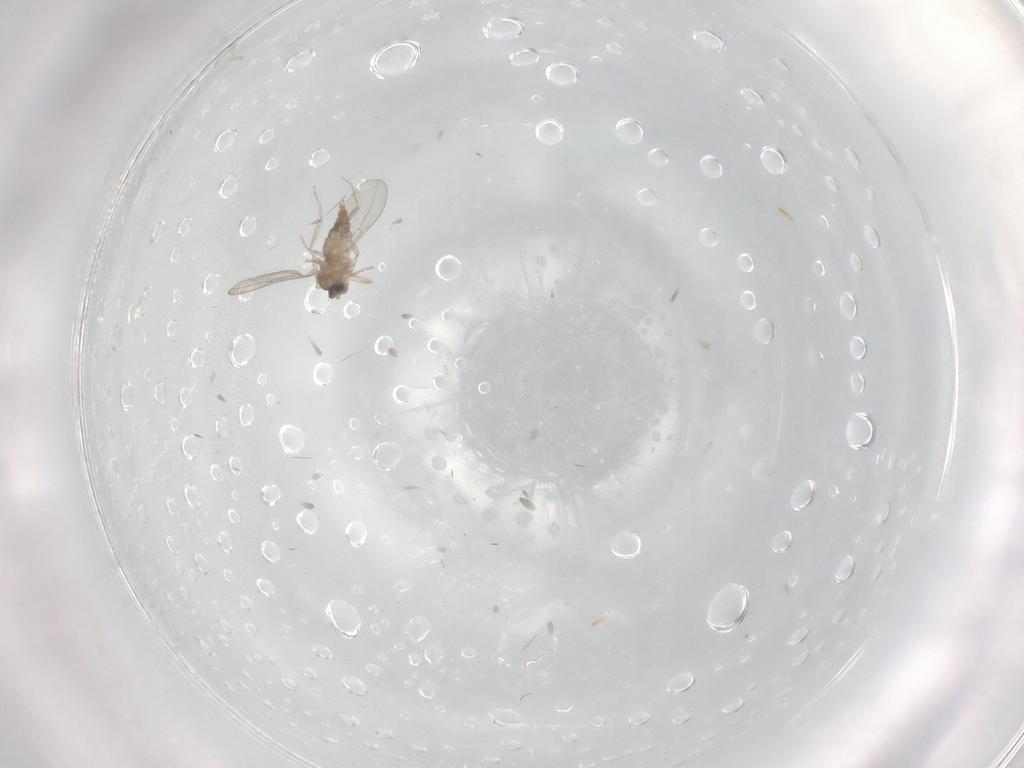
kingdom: Animalia
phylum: Arthropoda
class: Insecta
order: Diptera
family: Cecidomyiidae
